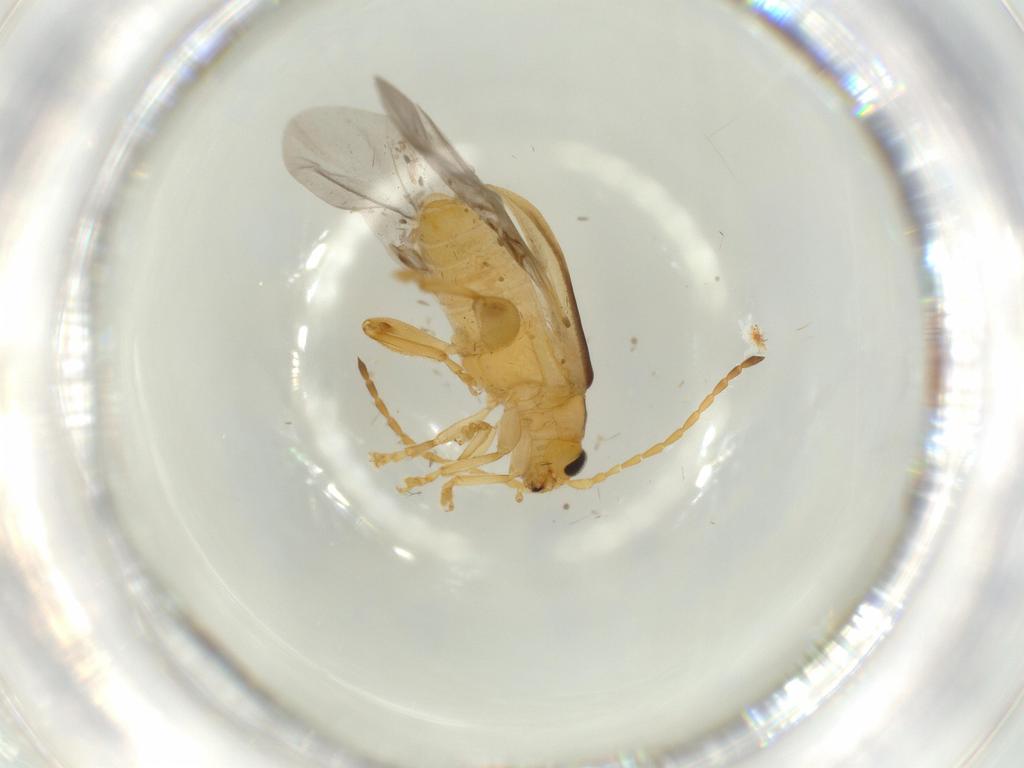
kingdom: Animalia
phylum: Arthropoda
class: Insecta
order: Coleoptera
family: Chrysomelidae
